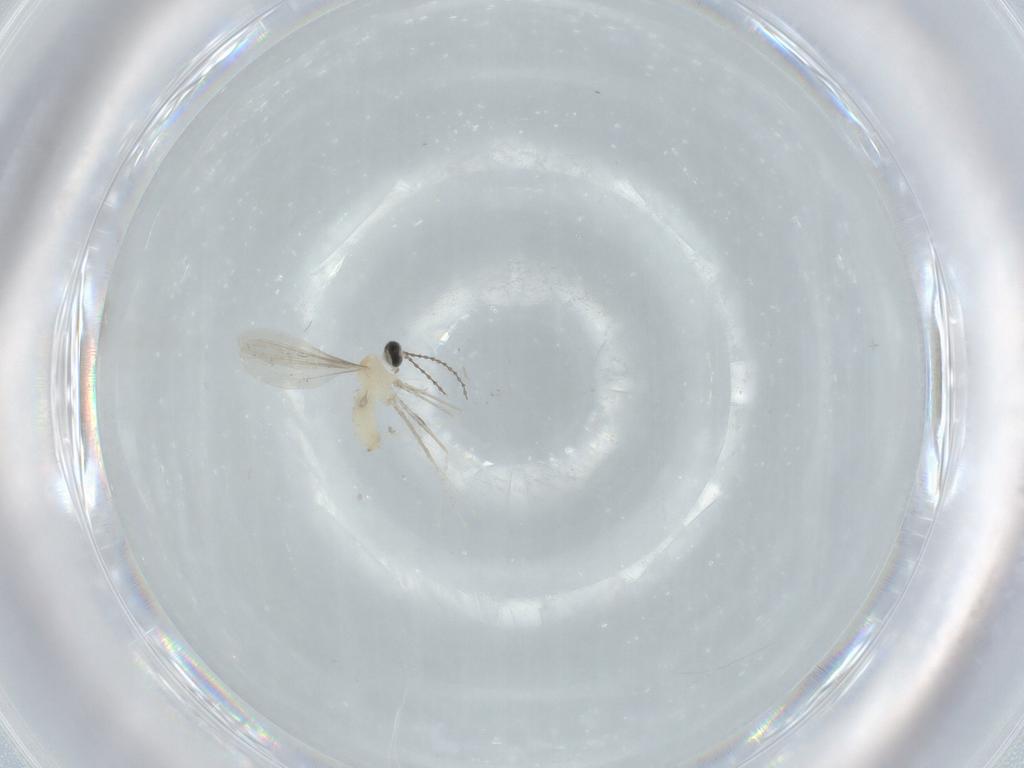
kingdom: Animalia
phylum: Arthropoda
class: Insecta
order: Diptera
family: Cecidomyiidae
